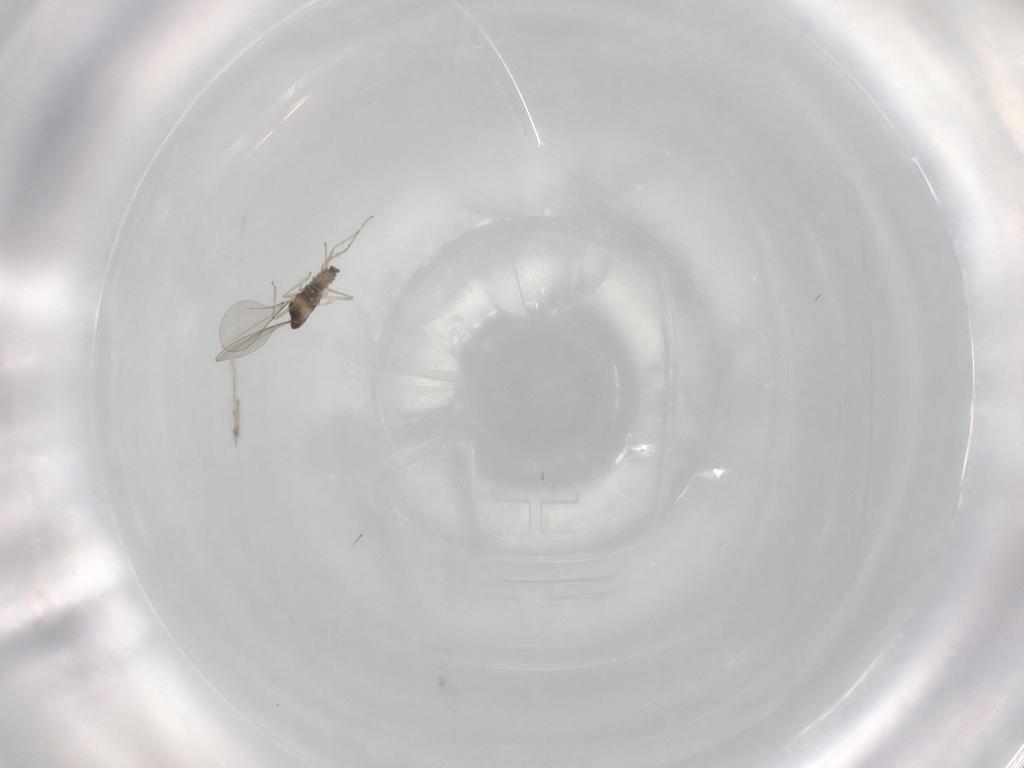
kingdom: Animalia
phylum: Arthropoda
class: Insecta
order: Diptera
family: Cecidomyiidae
